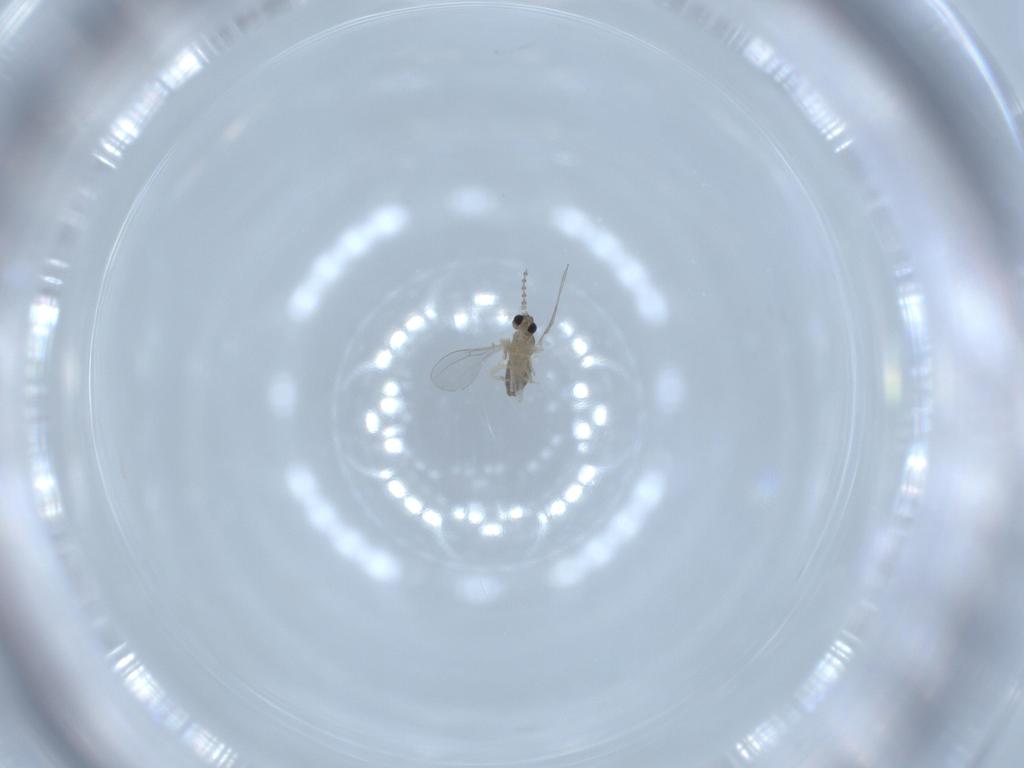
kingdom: Animalia
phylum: Arthropoda
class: Insecta
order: Diptera
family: Cecidomyiidae
